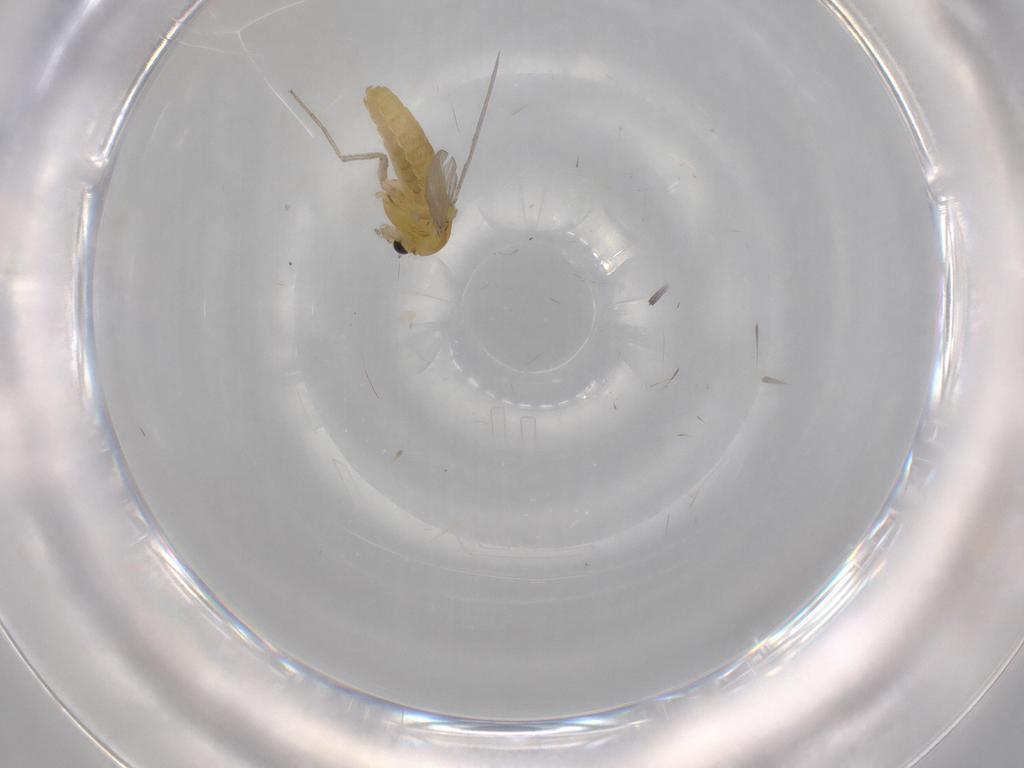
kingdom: Animalia
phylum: Arthropoda
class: Insecta
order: Diptera
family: Chironomidae
